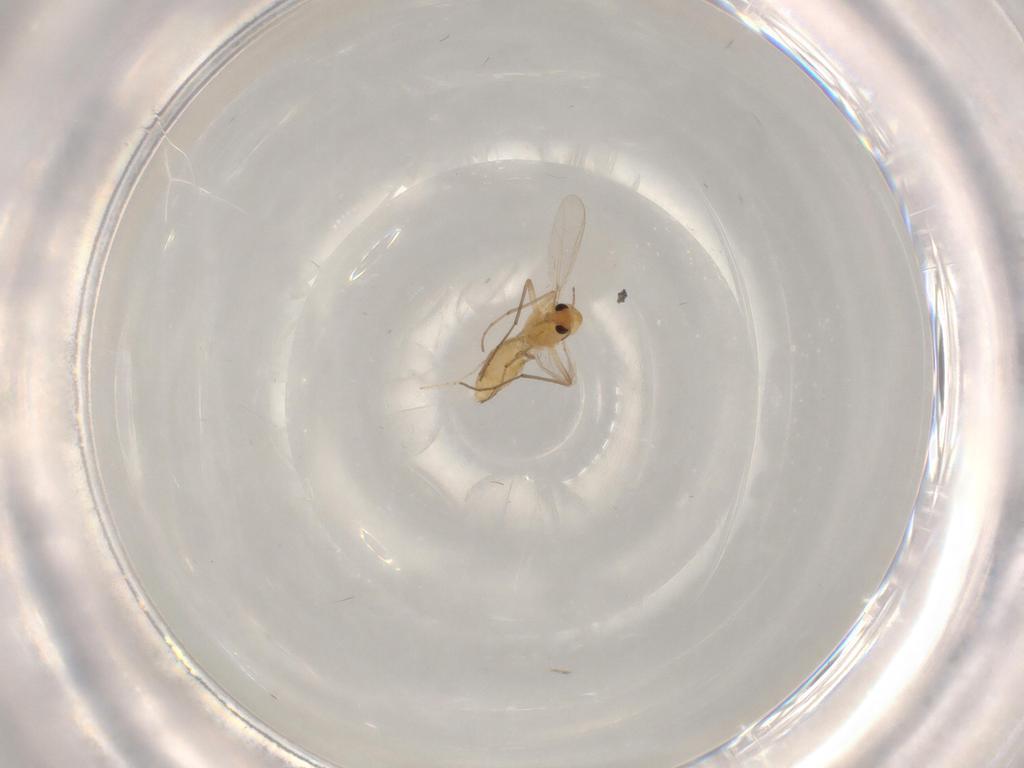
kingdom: Animalia
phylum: Arthropoda
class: Insecta
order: Diptera
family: Chironomidae
